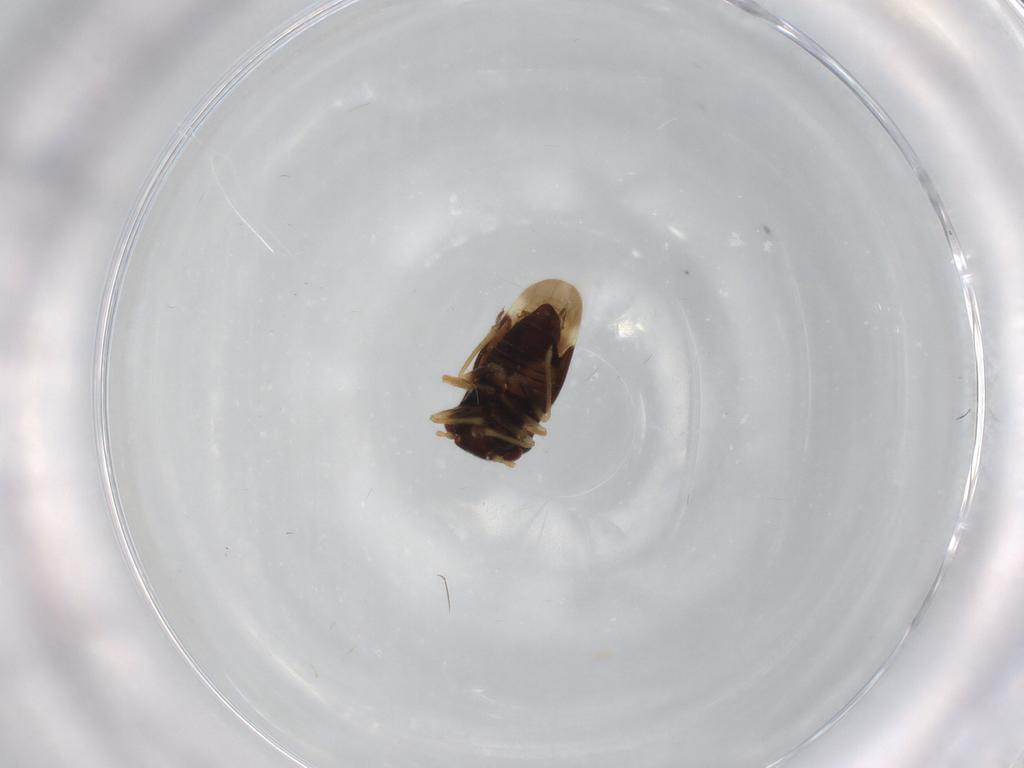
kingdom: Animalia
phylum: Arthropoda
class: Insecta
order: Hemiptera
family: Schizopteridae
